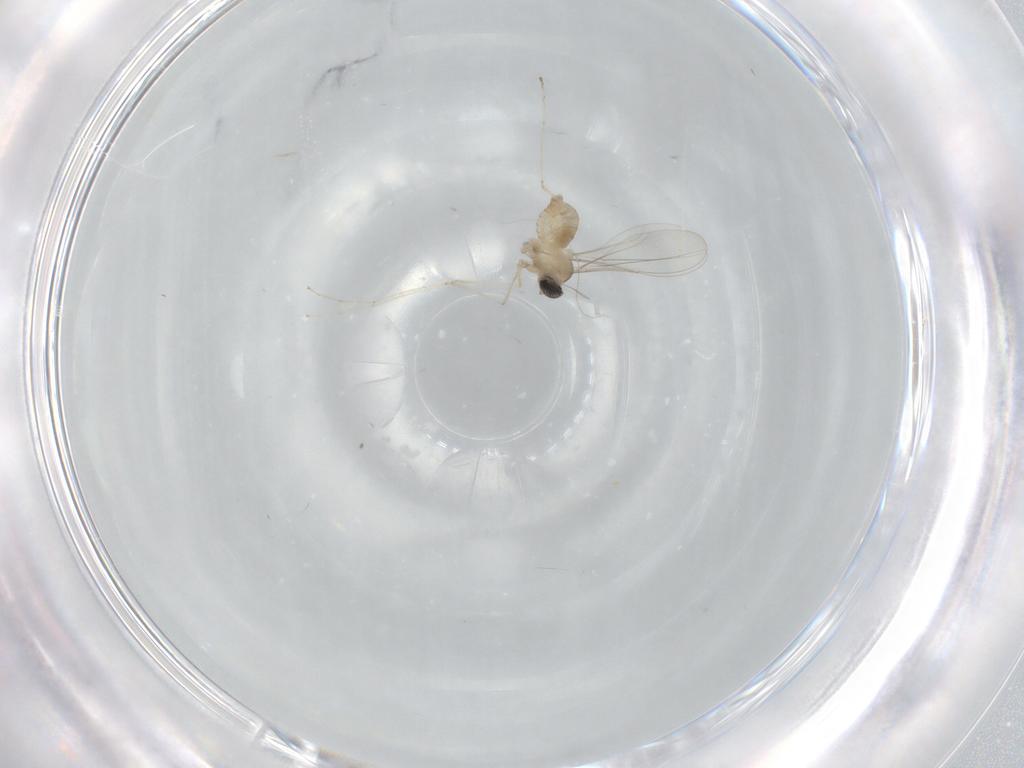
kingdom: Animalia
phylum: Arthropoda
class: Insecta
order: Diptera
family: Cecidomyiidae
